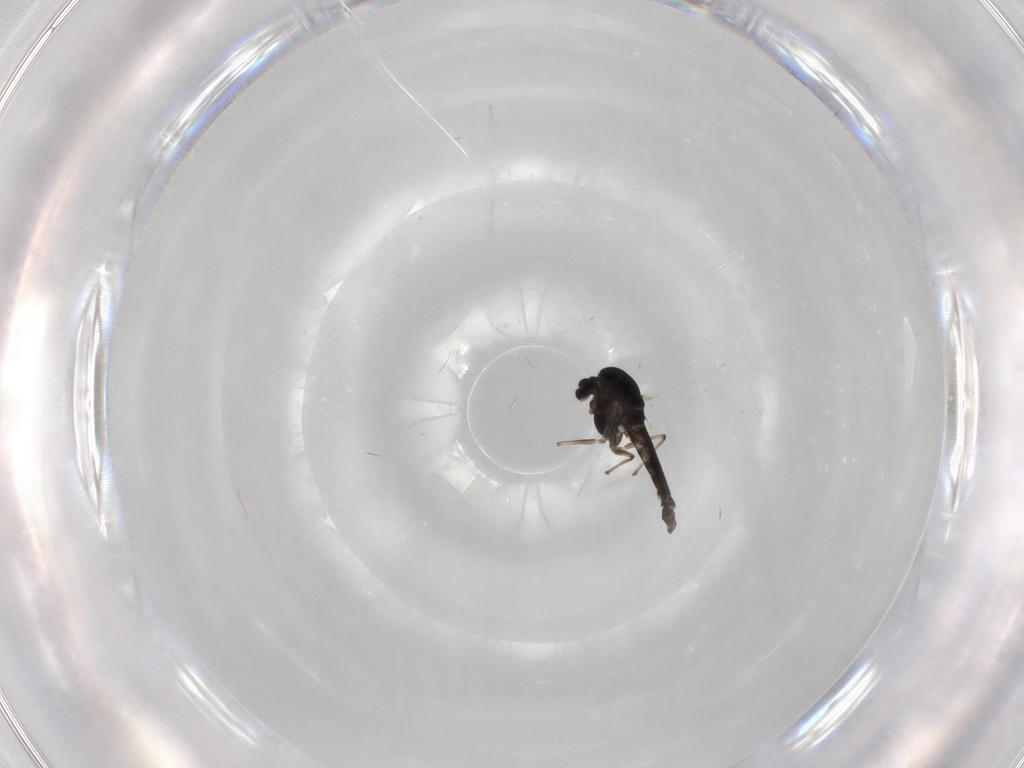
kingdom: Animalia
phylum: Arthropoda
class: Insecta
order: Diptera
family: Chironomidae
